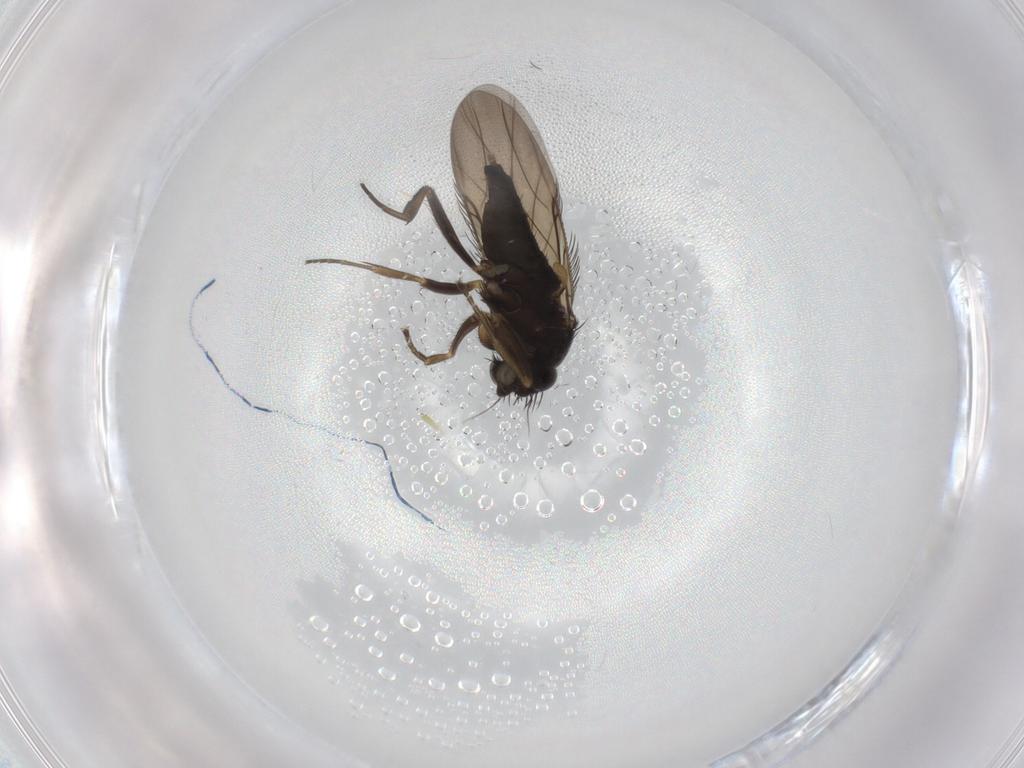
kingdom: Animalia
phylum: Arthropoda
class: Insecta
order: Diptera
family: Phoridae
